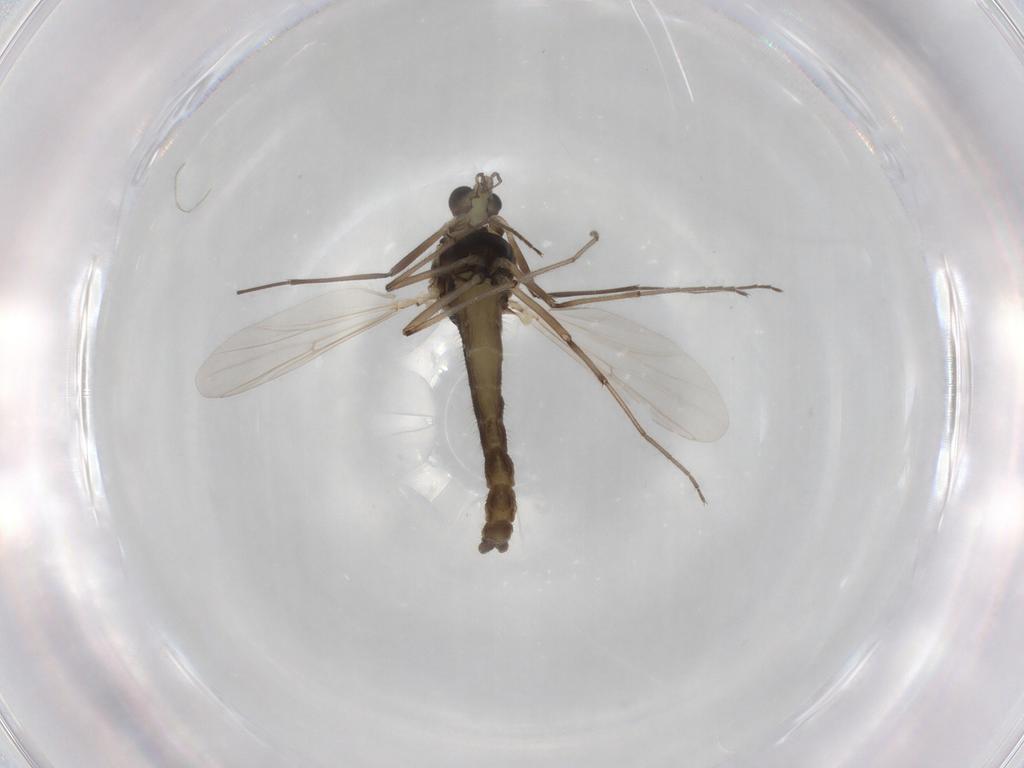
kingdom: Animalia
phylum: Arthropoda
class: Insecta
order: Diptera
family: Chironomidae
